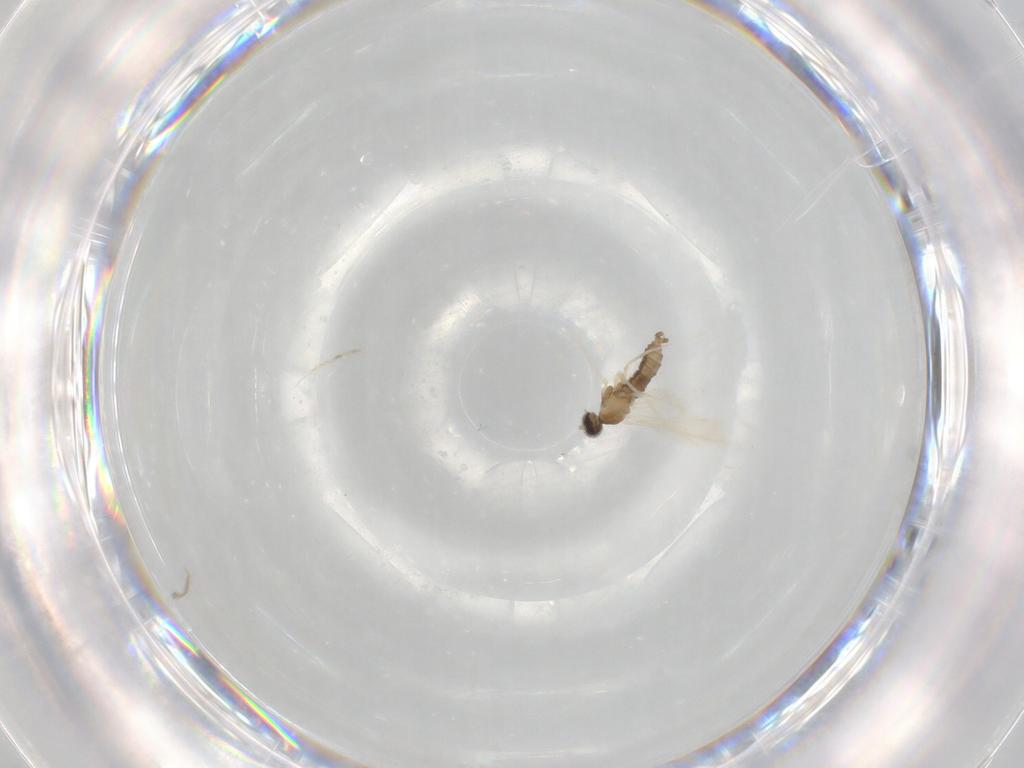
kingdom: Animalia
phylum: Arthropoda
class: Insecta
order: Diptera
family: Cecidomyiidae
